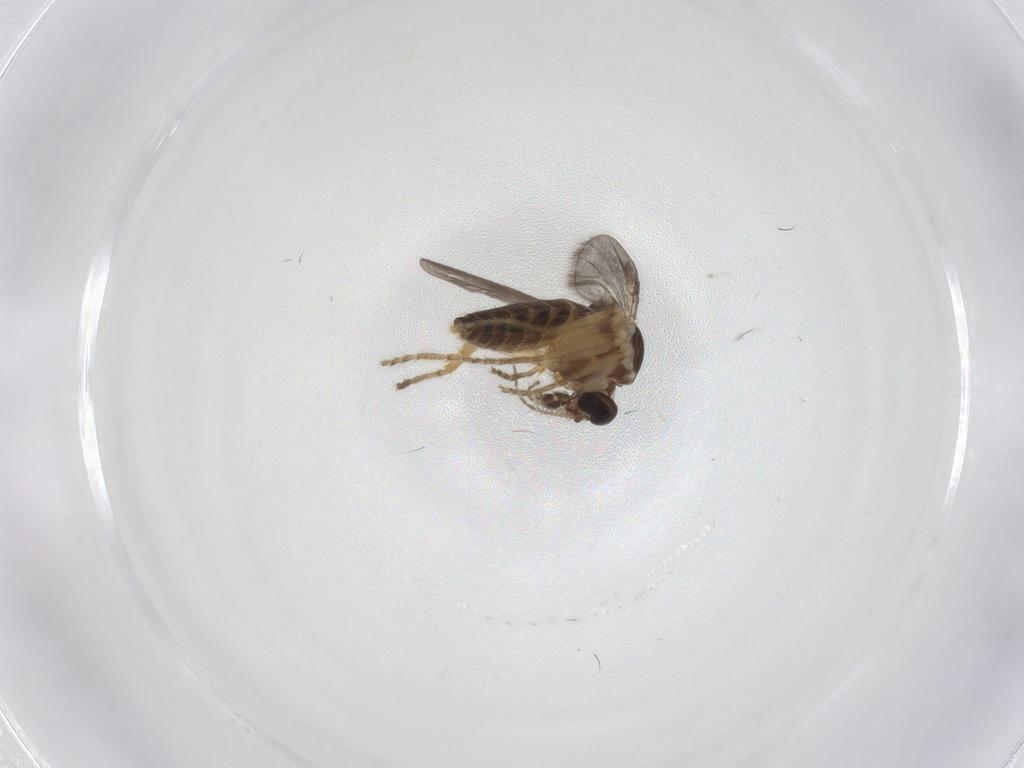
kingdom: Animalia
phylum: Arthropoda
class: Insecta
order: Diptera
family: Ceratopogonidae
